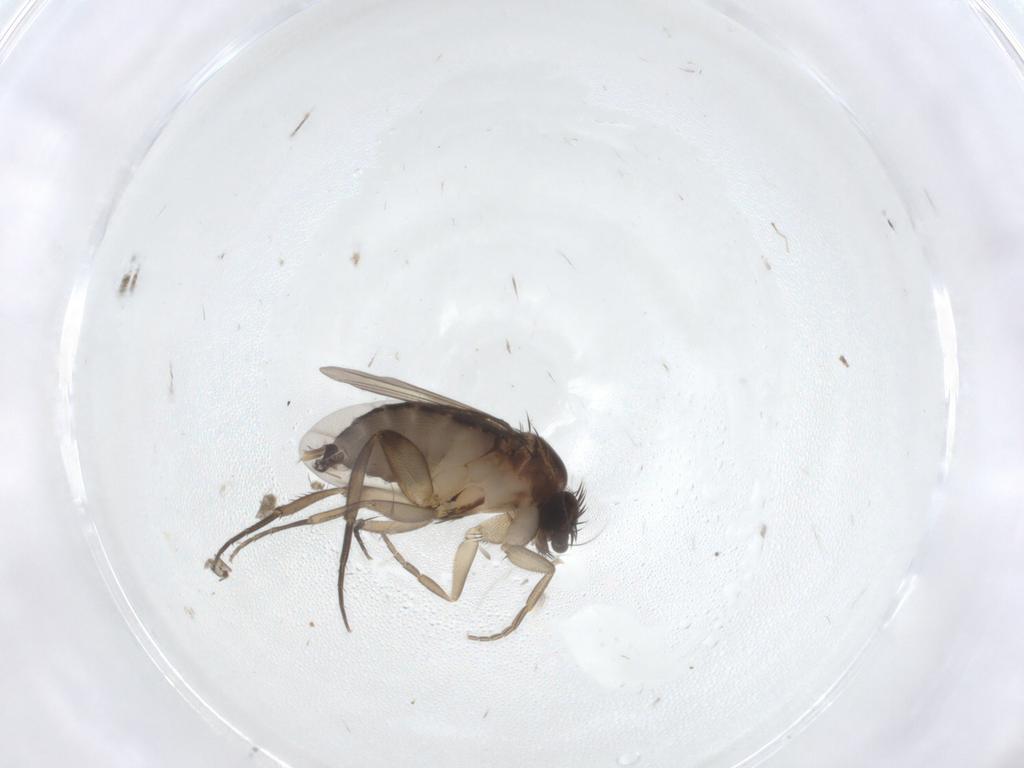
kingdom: Animalia
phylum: Arthropoda
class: Insecta
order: Diptera
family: Phoridae
